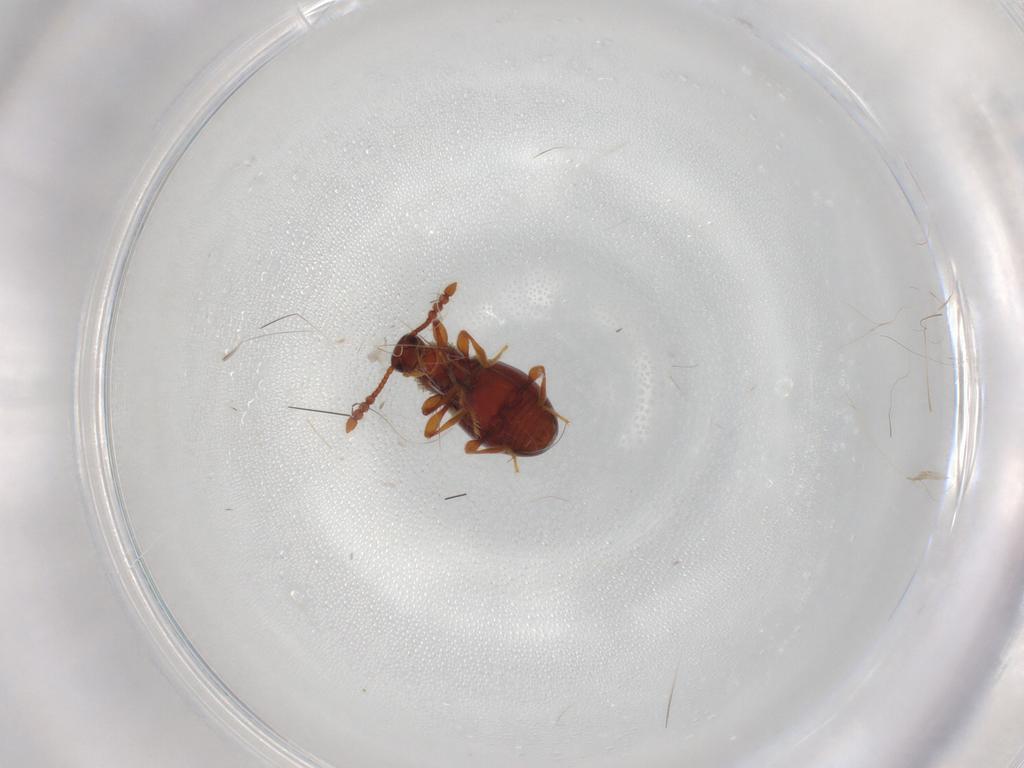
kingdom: Animalia
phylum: Arthropoda
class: Insecta
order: Coleoptera
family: Staphylinidae
